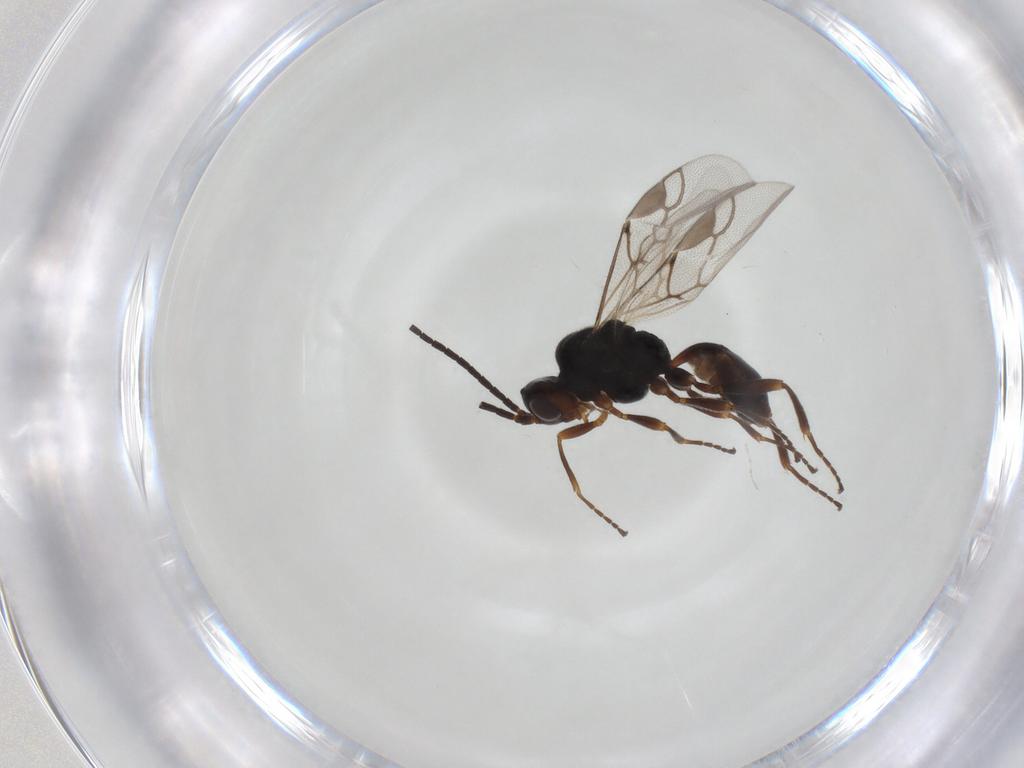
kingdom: Animalia
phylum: Arthropoda
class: Insecta
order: Hymenoptera
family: Braconidae
